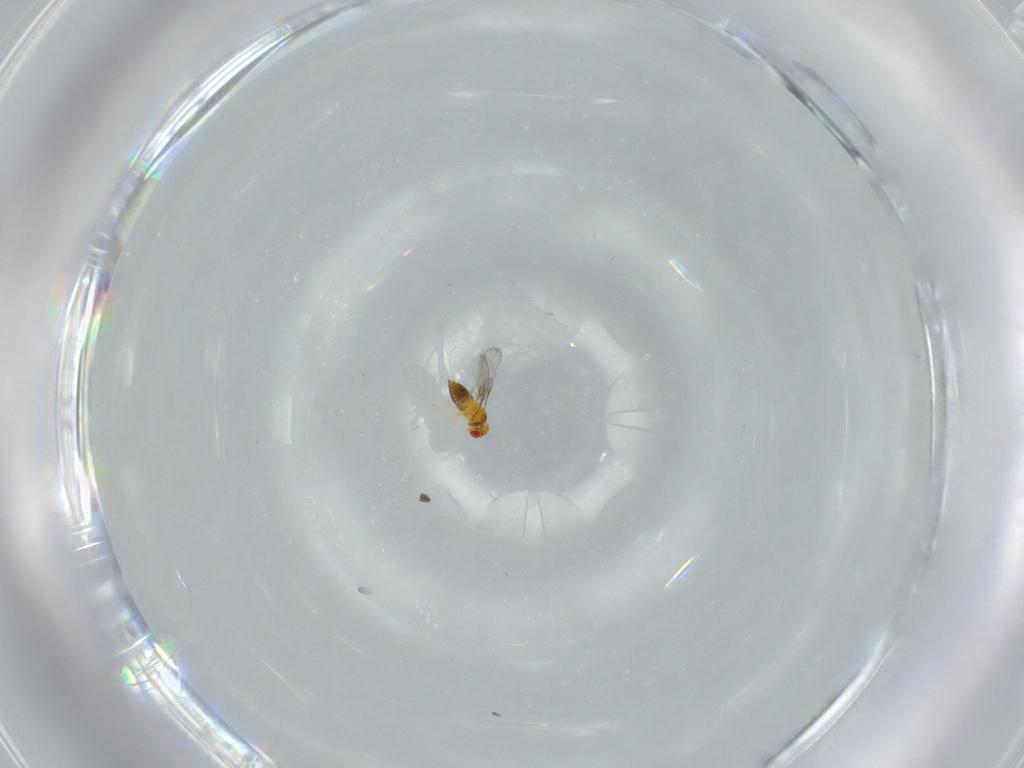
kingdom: Animalia
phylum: Arthropoda
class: Insecta
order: Hymenoptera
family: Trichogrammatidae
